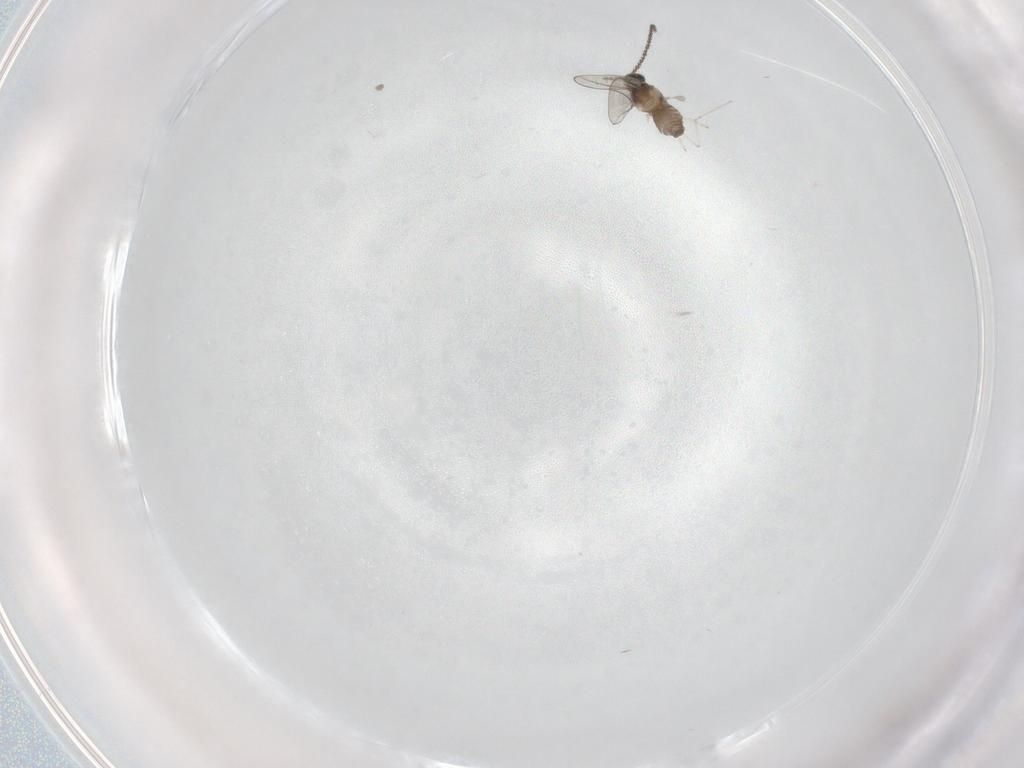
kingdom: Animalia
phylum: Arthropoda
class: Insecta
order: Diptera
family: Cecidomyiidae
